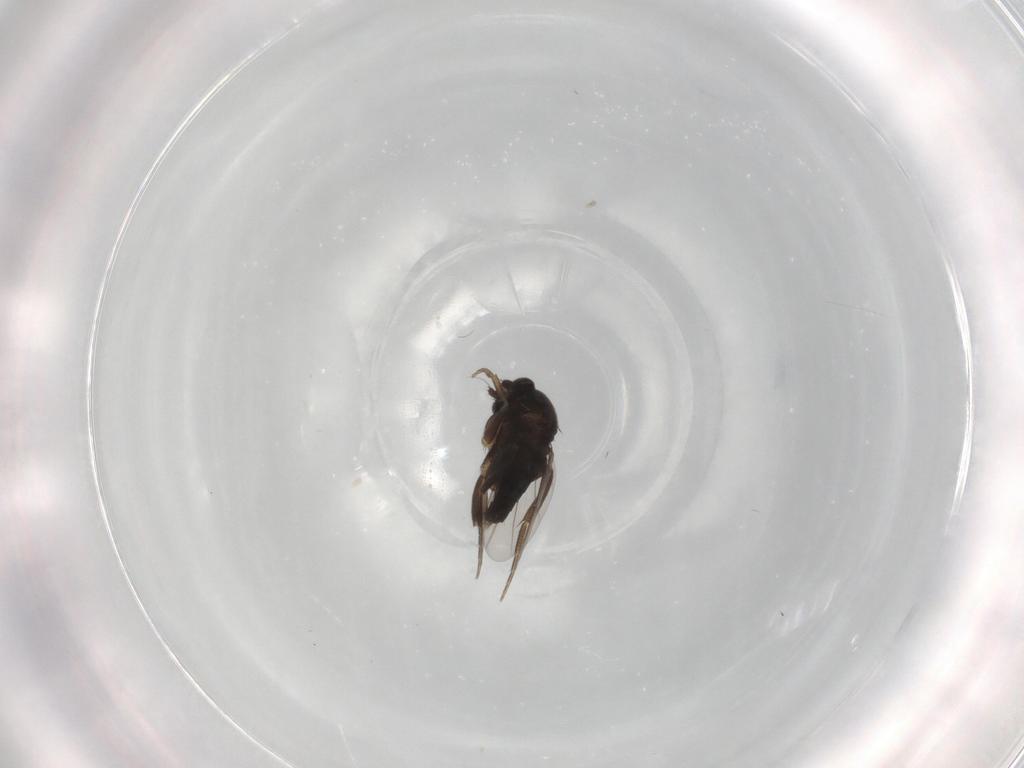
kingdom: Animalia
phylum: Arthropoda
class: Insecta
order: Diptera
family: Phoridae
